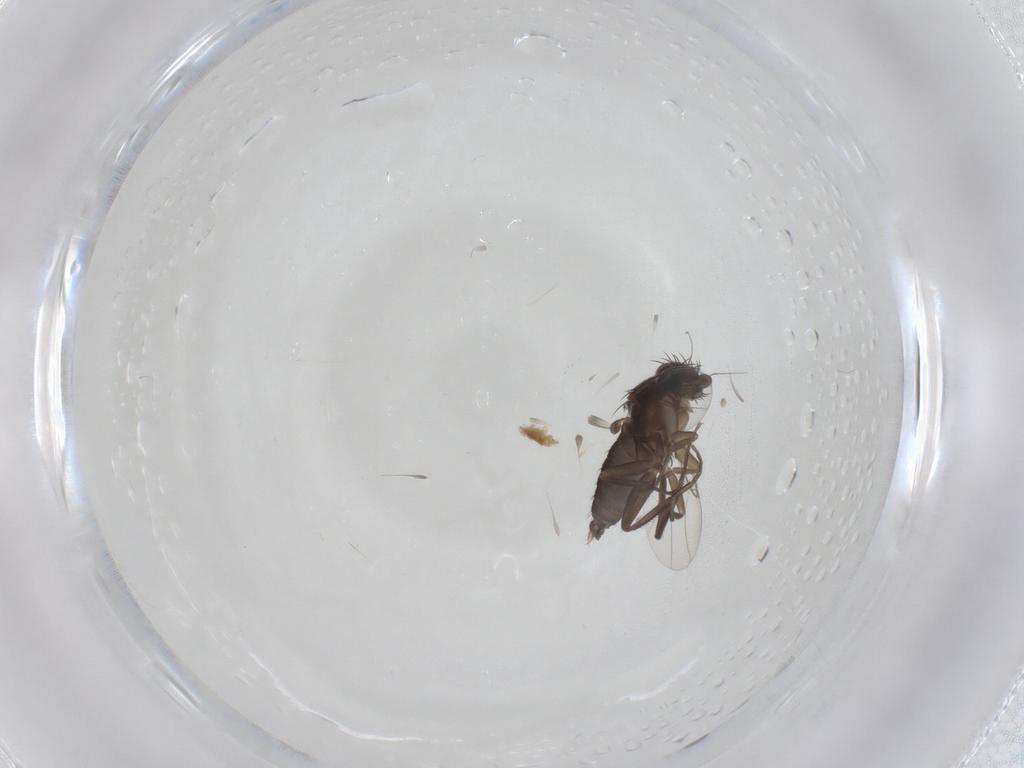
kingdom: Animalia
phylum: Arthropoda
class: Insecta
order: Diptera
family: Phoridae
